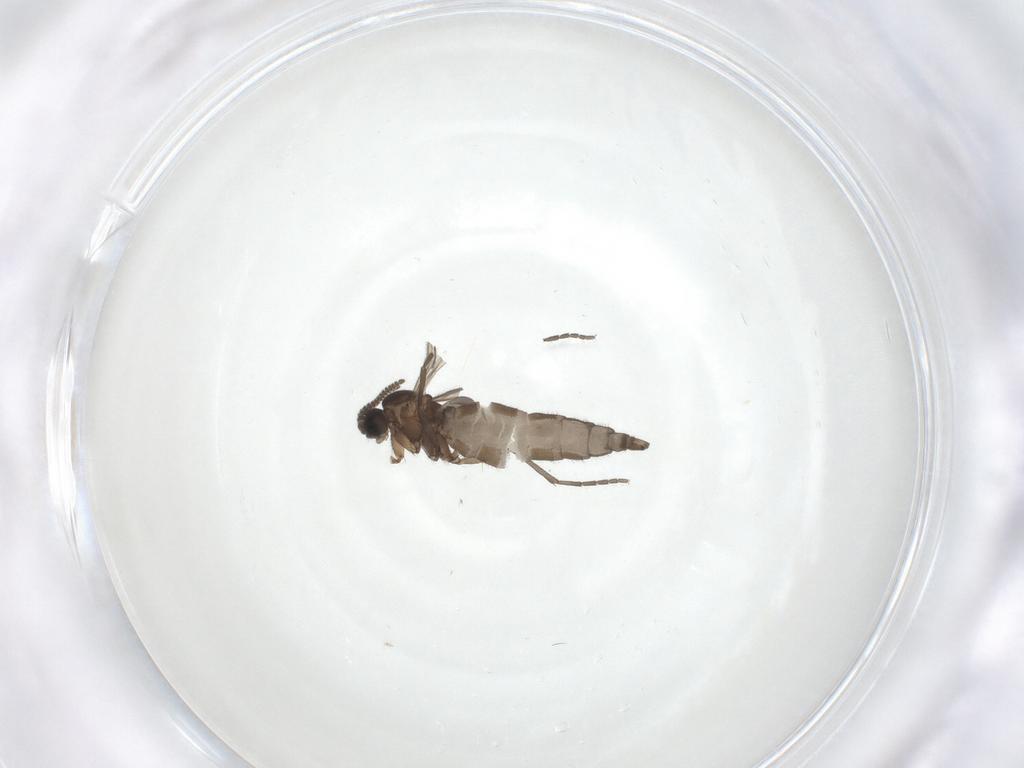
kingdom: Animalia
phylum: Arthropoda
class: Insecta
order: Diptera
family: Sciaridae
